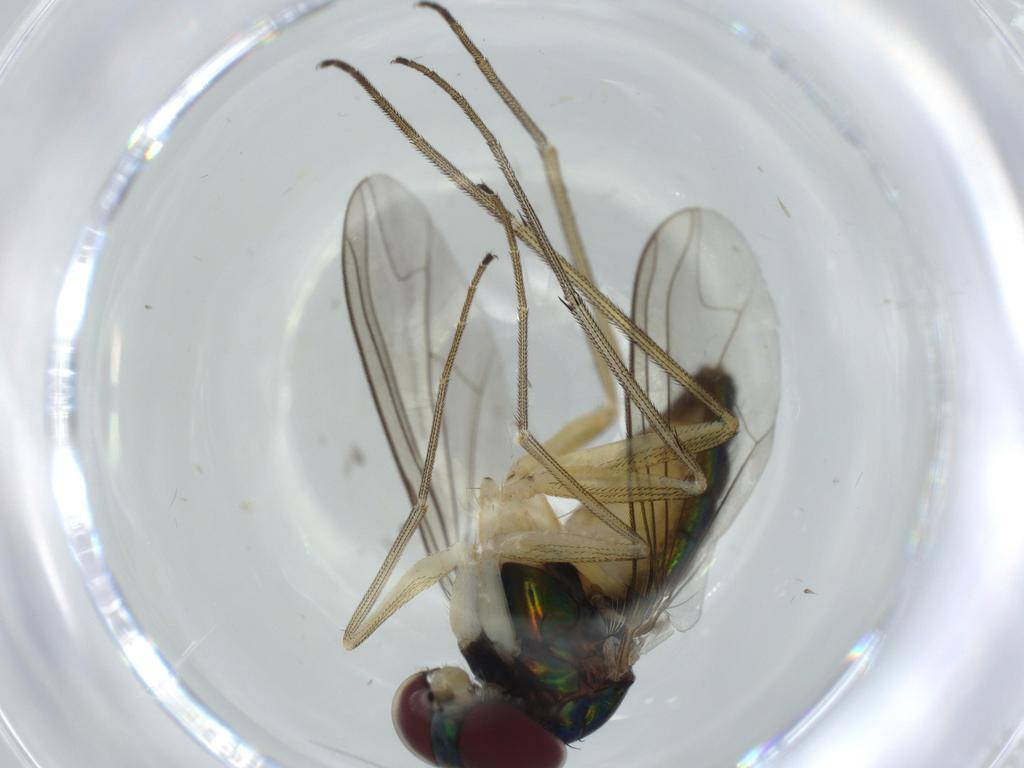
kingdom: Animalia
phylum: Arthropoda
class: Insecta
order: Diptera
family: Dolichopodidae
